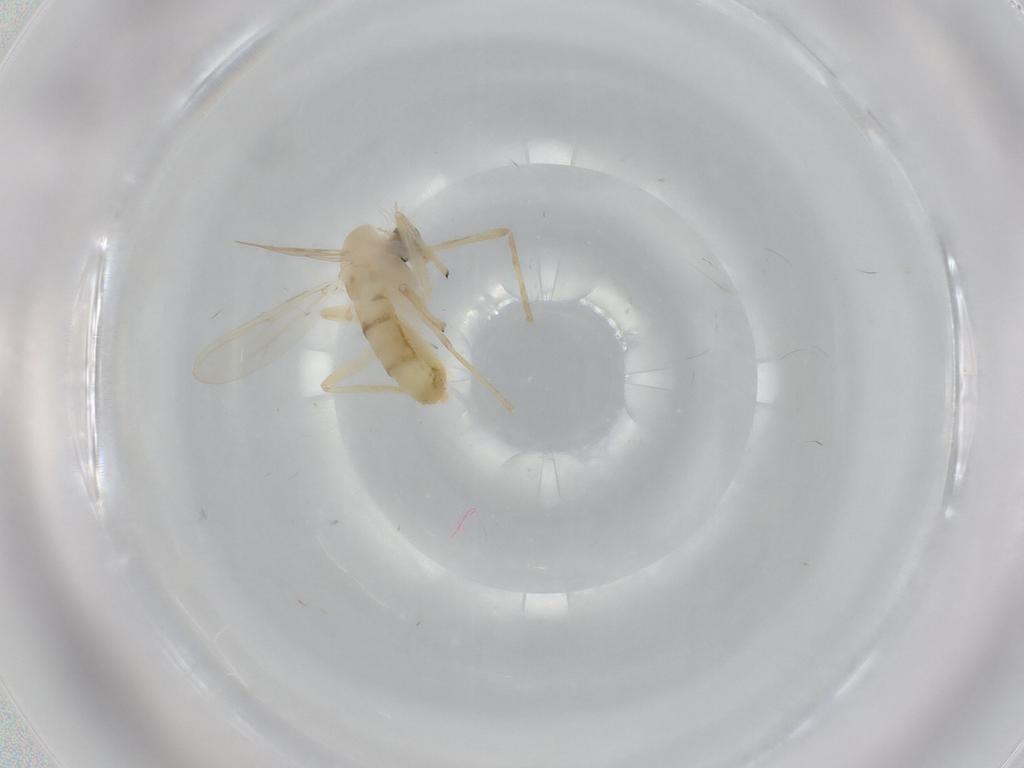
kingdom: Animalia
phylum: Arthropoda
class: Insecta
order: Diptera
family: Chironomidae
